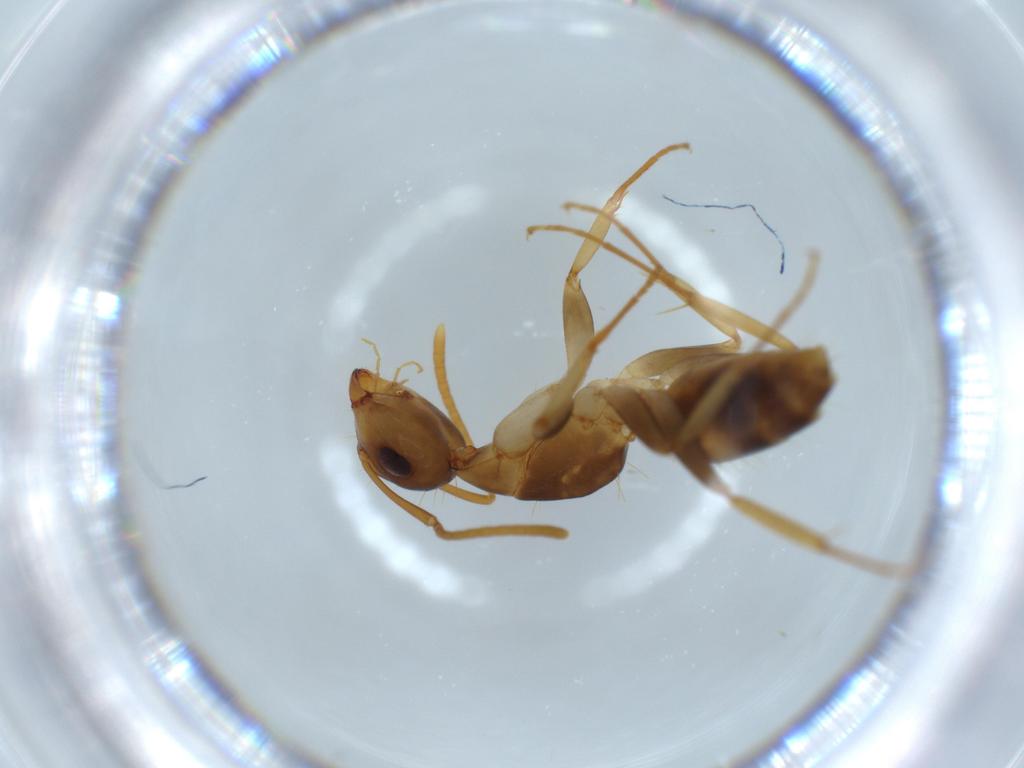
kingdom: Animalia
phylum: Arthropoda
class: Insecta
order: Hymenoptera
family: Formicidae
